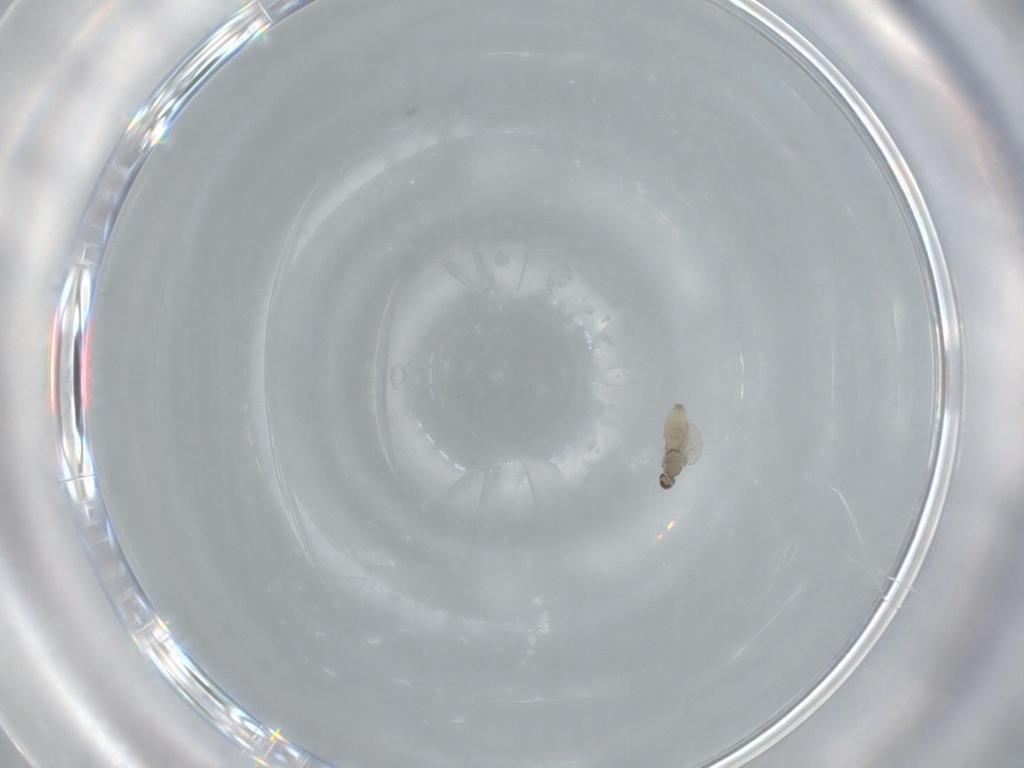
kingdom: Animalia
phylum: Arthropoda
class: Insecta
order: Diptera
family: Cecidomyiidae
